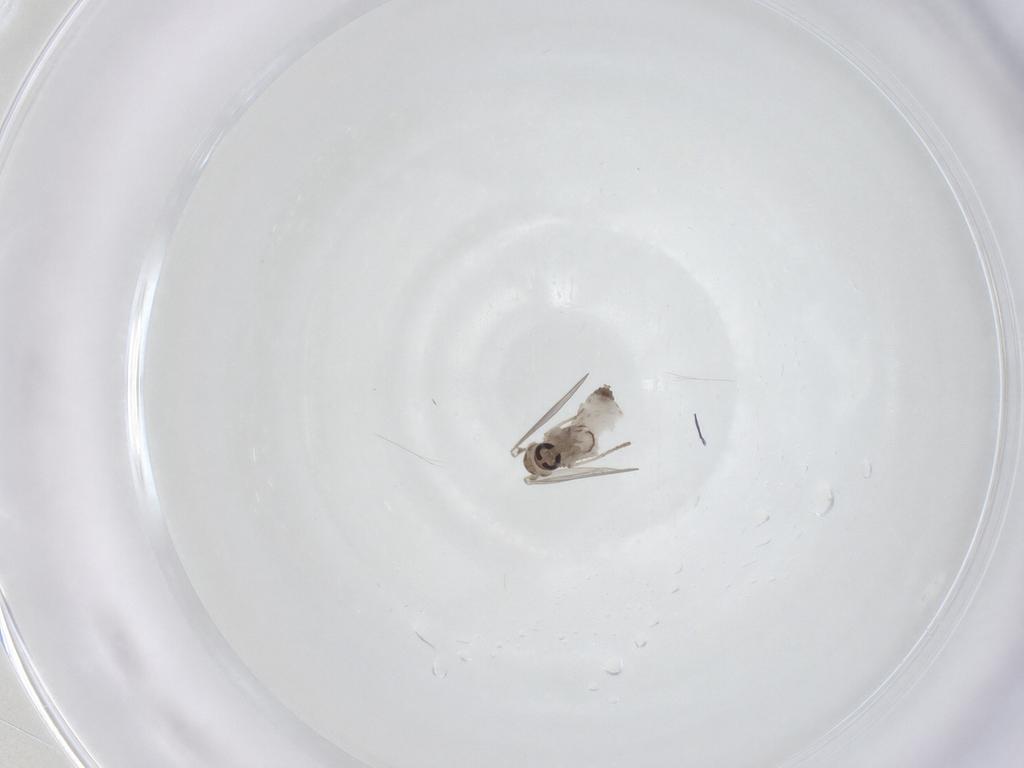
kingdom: Animalia
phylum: Arthropoda
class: Insecta
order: Diptera
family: Psychodidae
